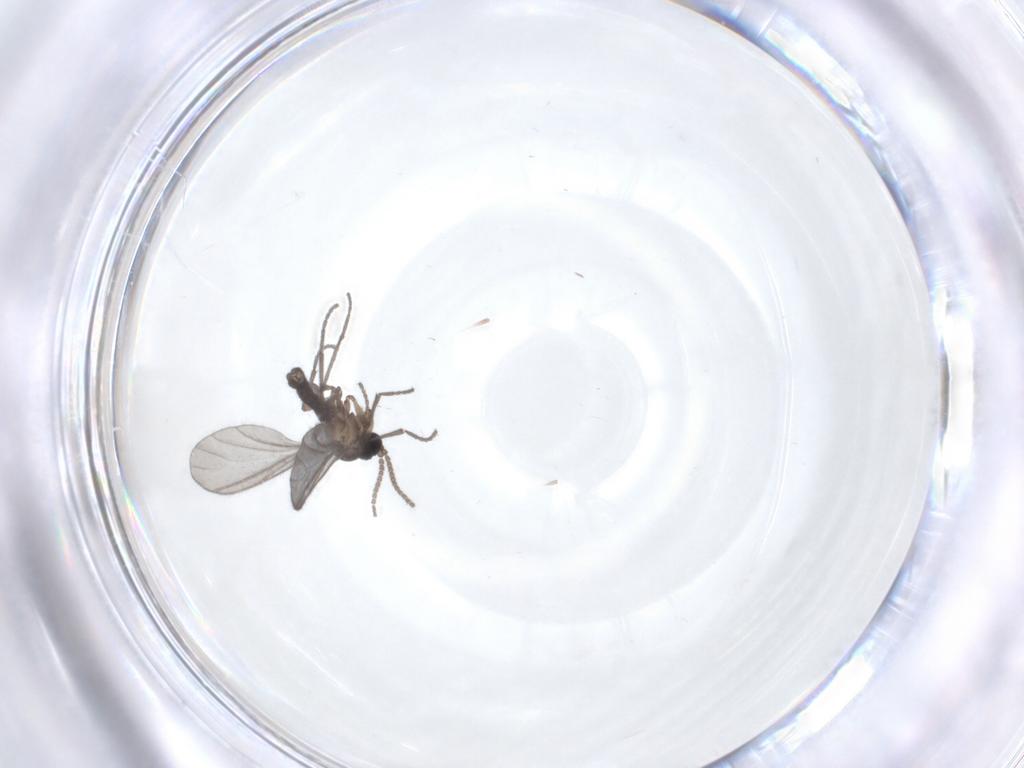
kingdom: Animalia
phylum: Arthropoda
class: Insecta
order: Diptera
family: Sciaridae
